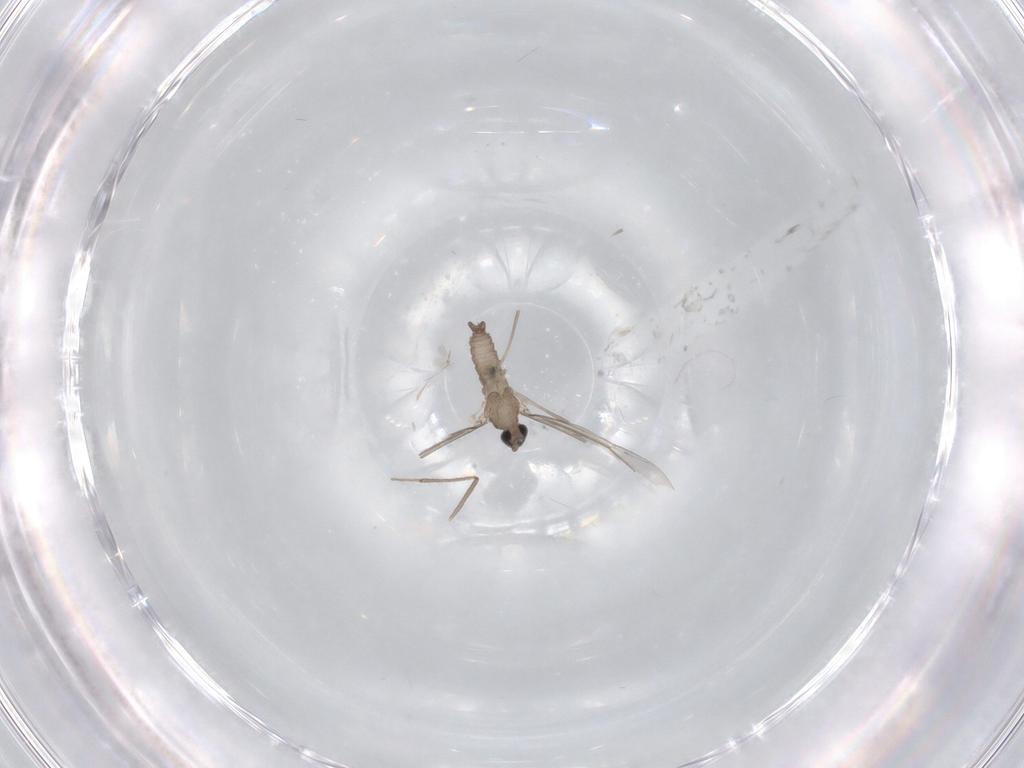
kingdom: Animalia
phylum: Arthropoda
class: Insecta
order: Diptera
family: Cecidomyiidae
